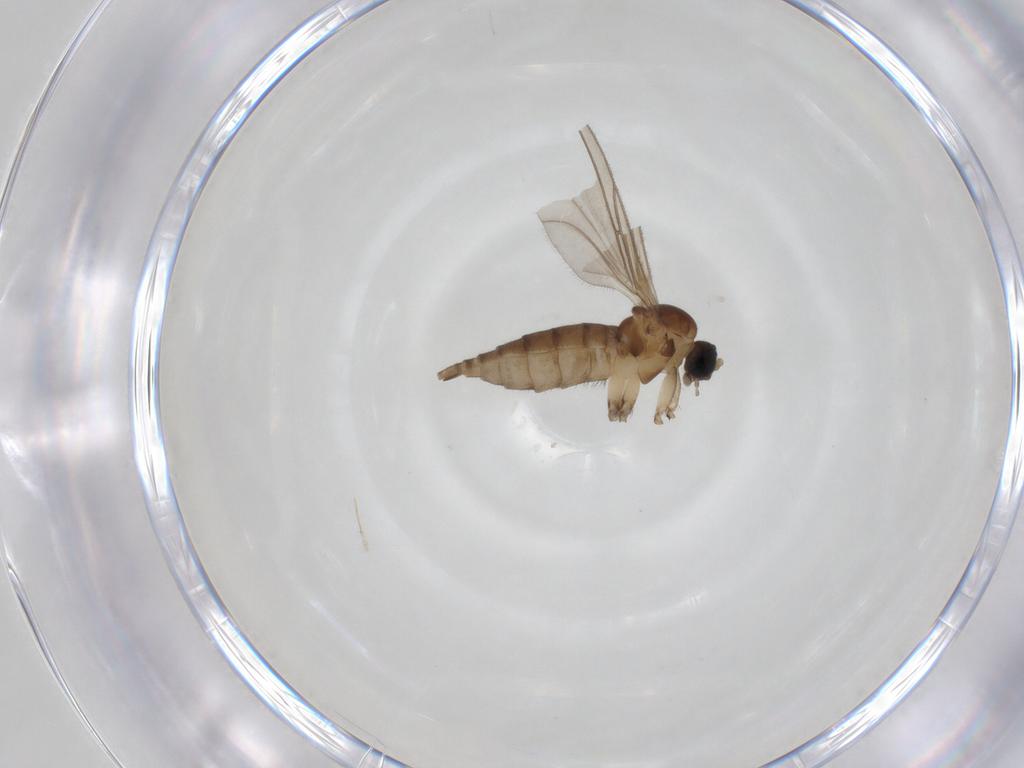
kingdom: Animalia
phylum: Arthropoda
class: Insecta
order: Diptera
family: Sciaridae
